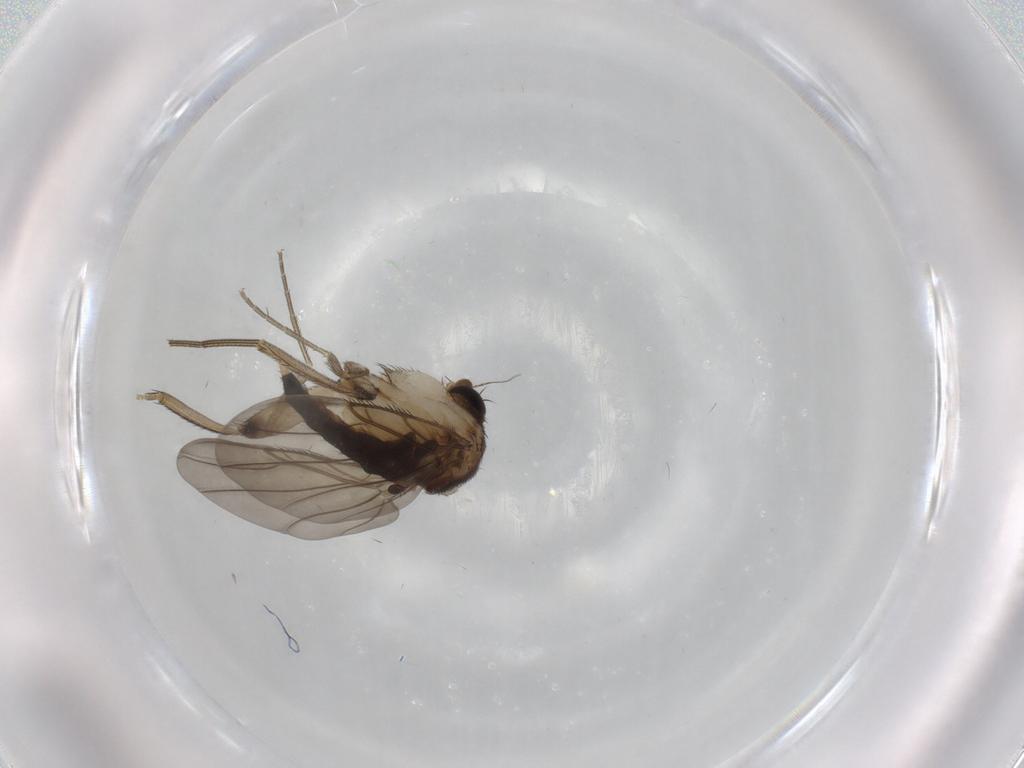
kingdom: Animalia
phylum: Arthropoda
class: Insecta
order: Diptera
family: Phoridae
